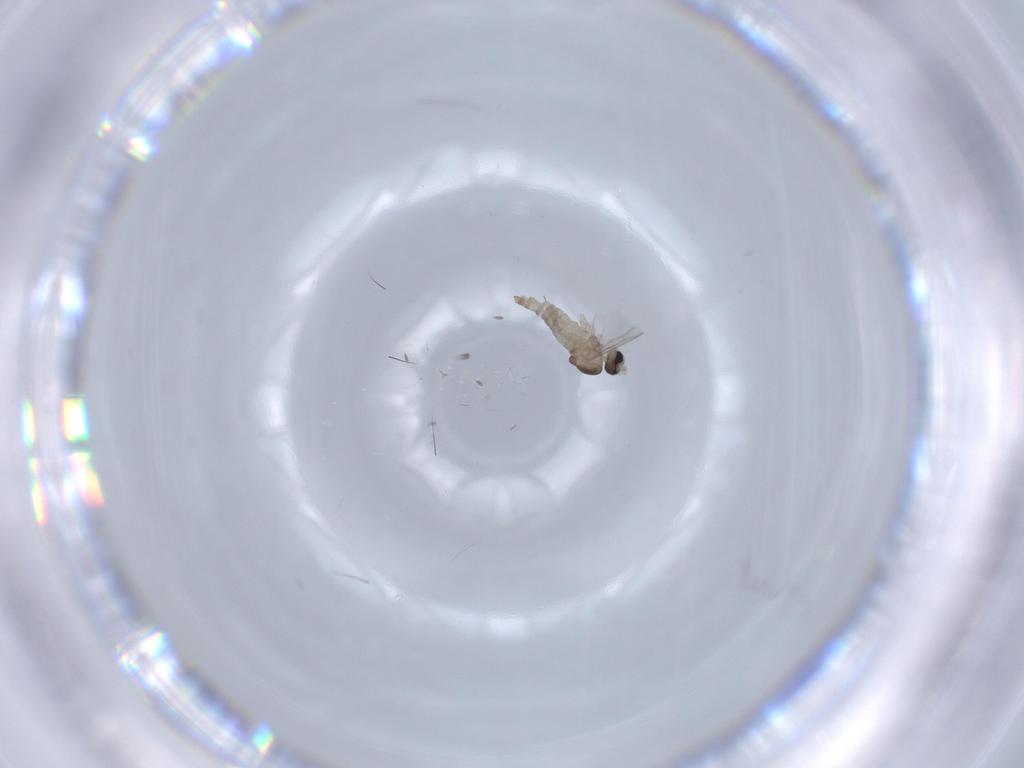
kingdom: Animalia
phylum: Arthropoda
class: Insecta
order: Diptera
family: Cecidomyiidae
